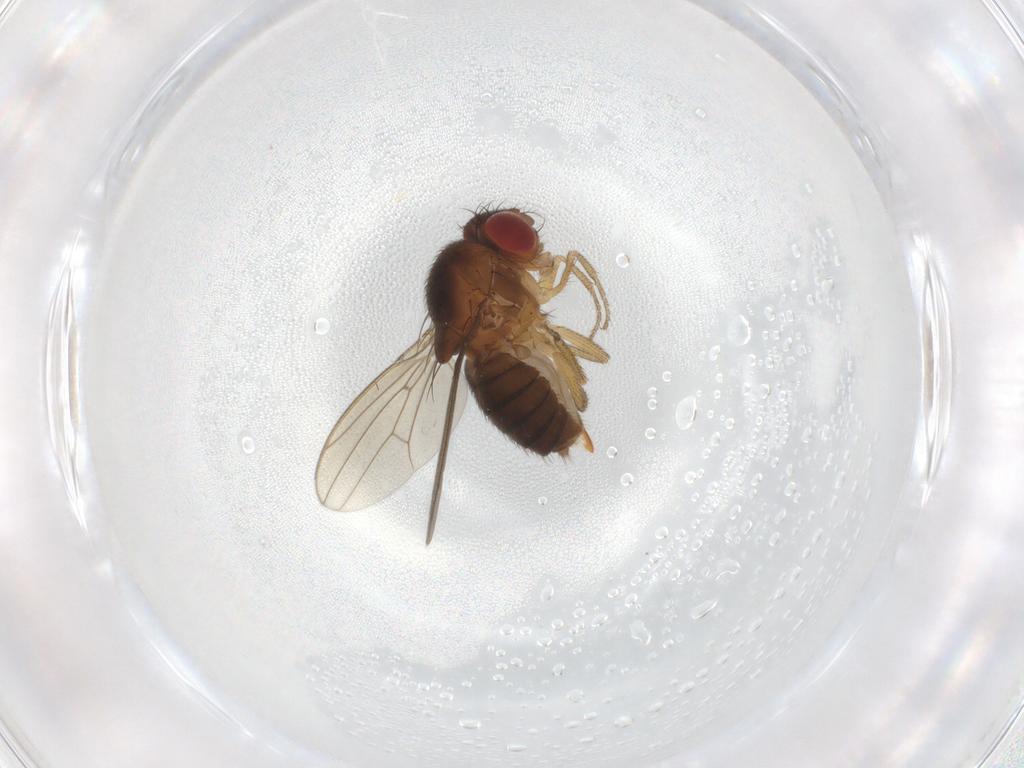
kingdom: Animalia
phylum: Arthropoda
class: Insecta
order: Diptera
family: Drosophilidae
